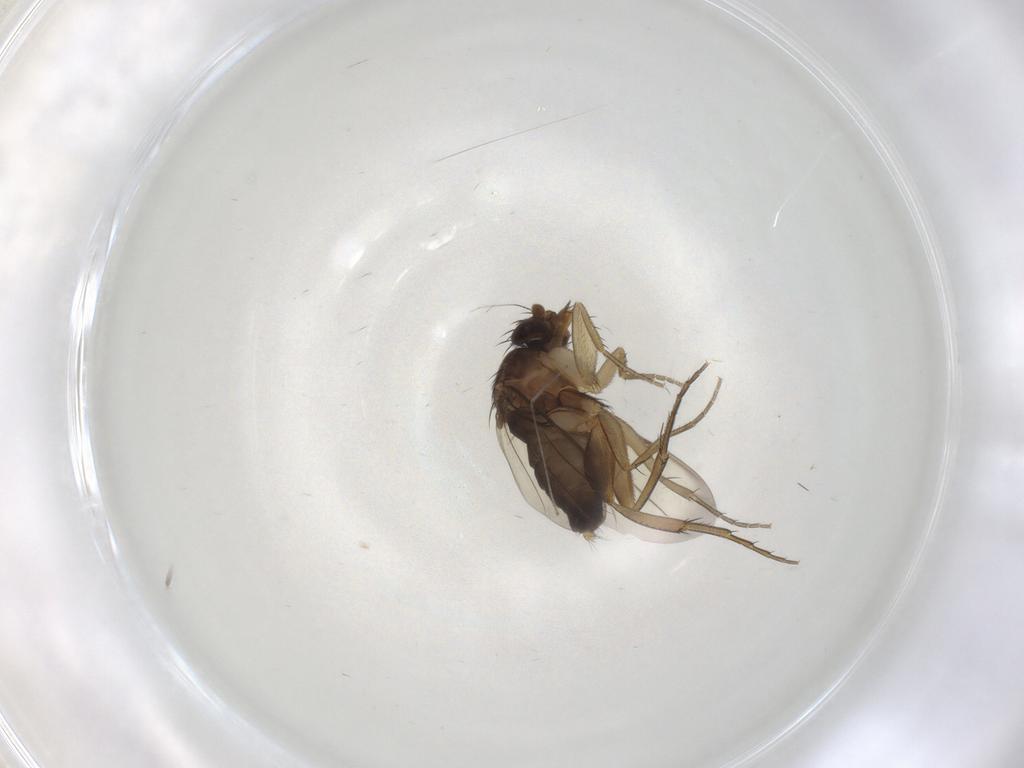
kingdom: Animalia
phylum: Arthropoda
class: Insecta
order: Diptera
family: Phoridae
